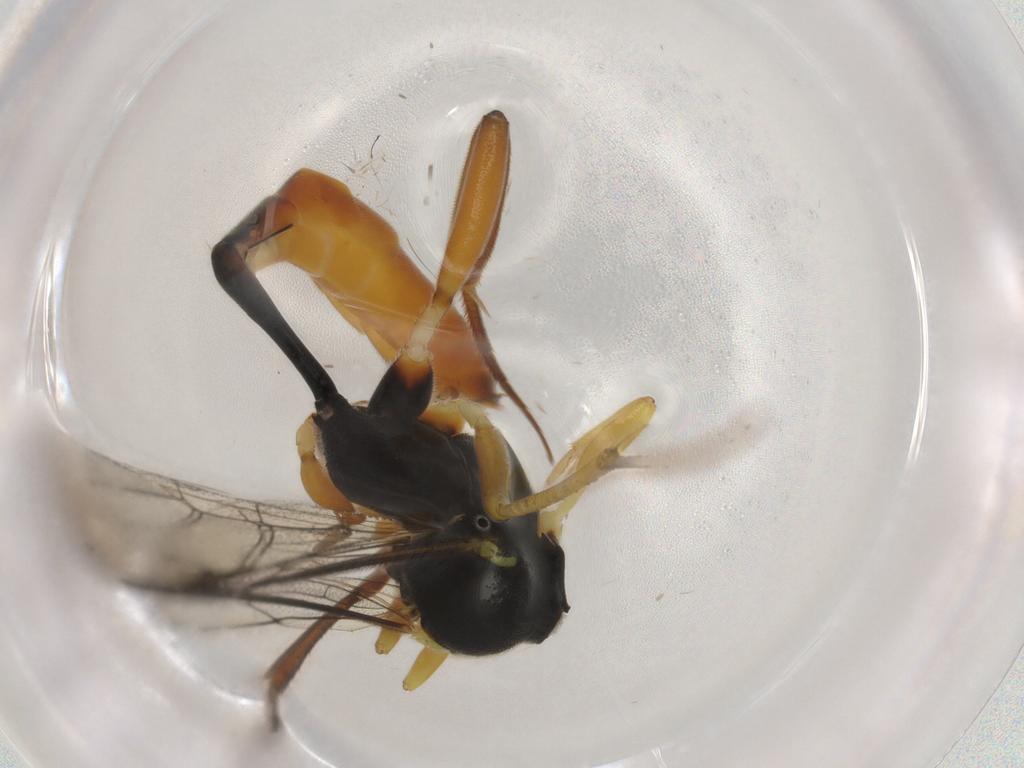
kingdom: Animalia
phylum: Arthropoda
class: Insecta
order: Hymenoptera
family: Ichneumonidae
